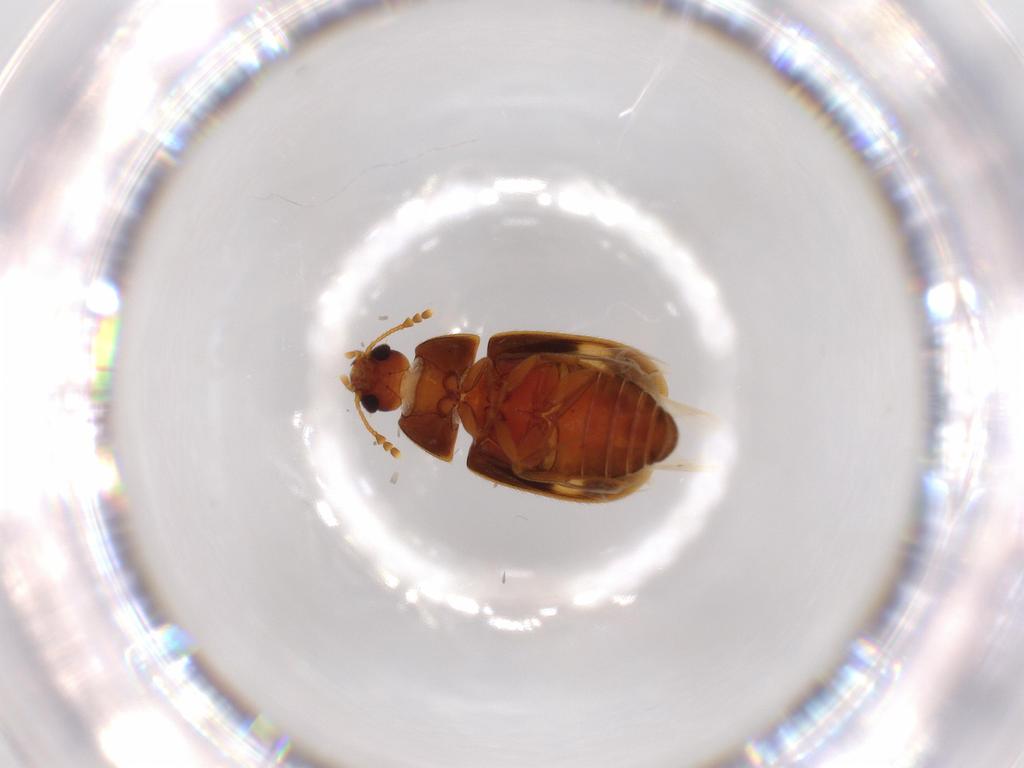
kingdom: Animalia
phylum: Arthropoda
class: Insecta
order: Coleoptera
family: Mycetophagidae
